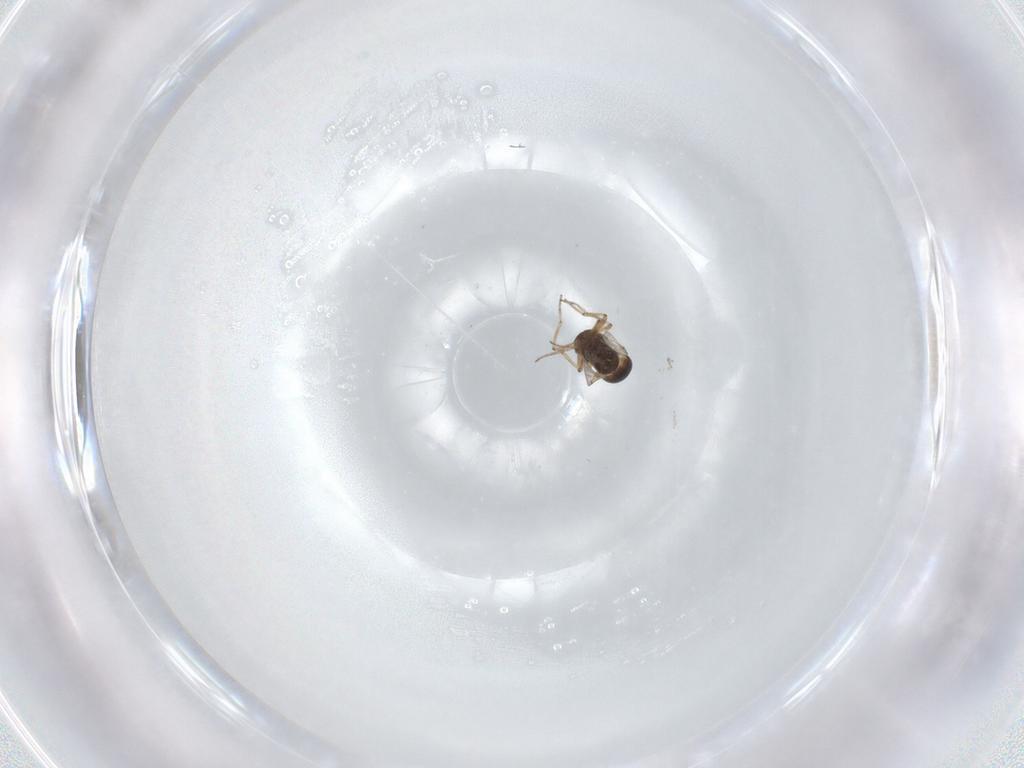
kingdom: Animalia
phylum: Arthropoda
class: Insecta
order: Diptera
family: Ceratopogonidae
